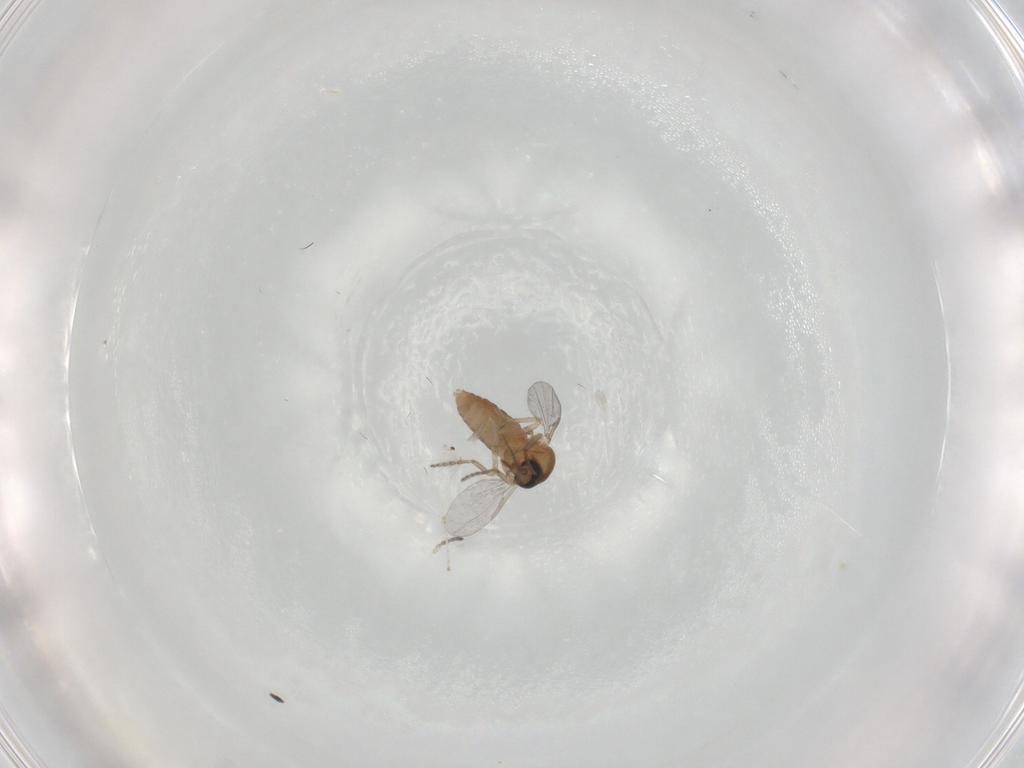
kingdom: Animalia
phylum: Arthropoda
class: Insecta
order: Diptera
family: Ceratopogonidae
